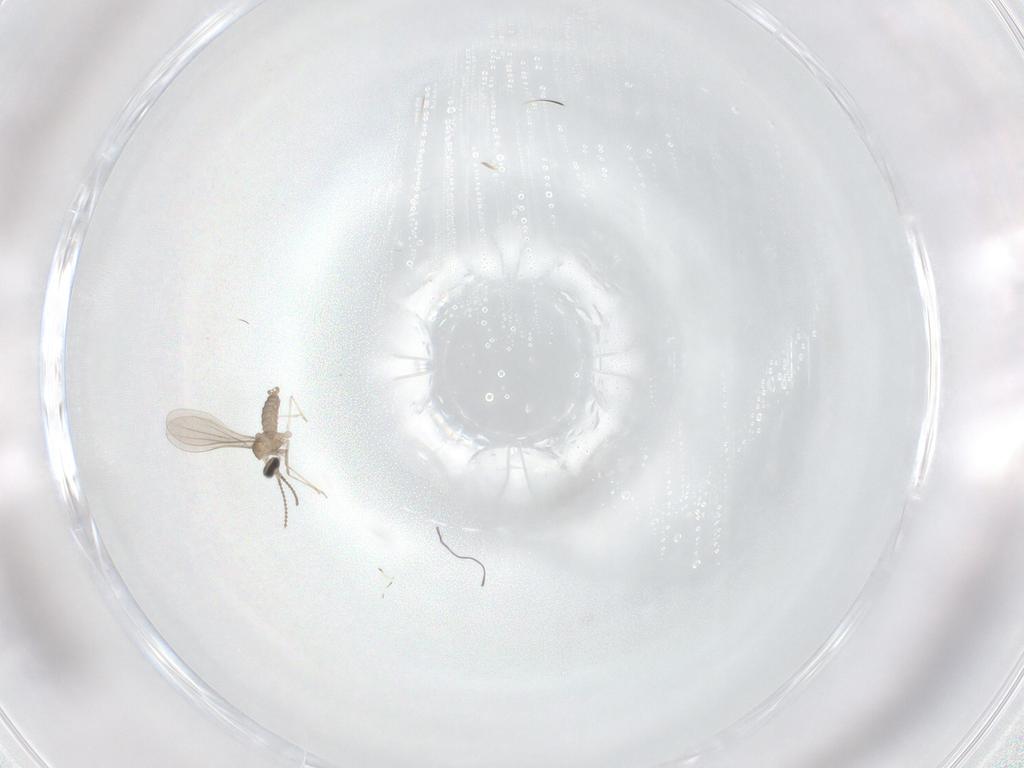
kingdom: Animalia
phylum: Arthropoda
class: Insecta
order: Diptera
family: Cecidomyiidae
